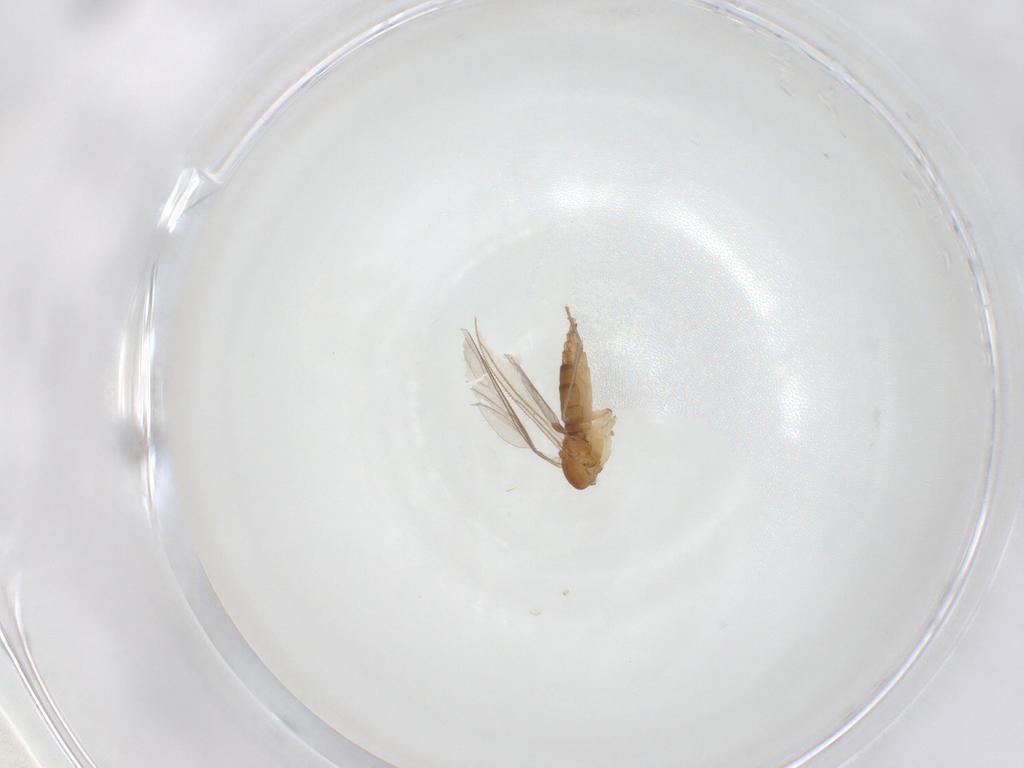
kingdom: Animalia
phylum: Arthropoda
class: Insecta
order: Diptera
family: Sciaridae
